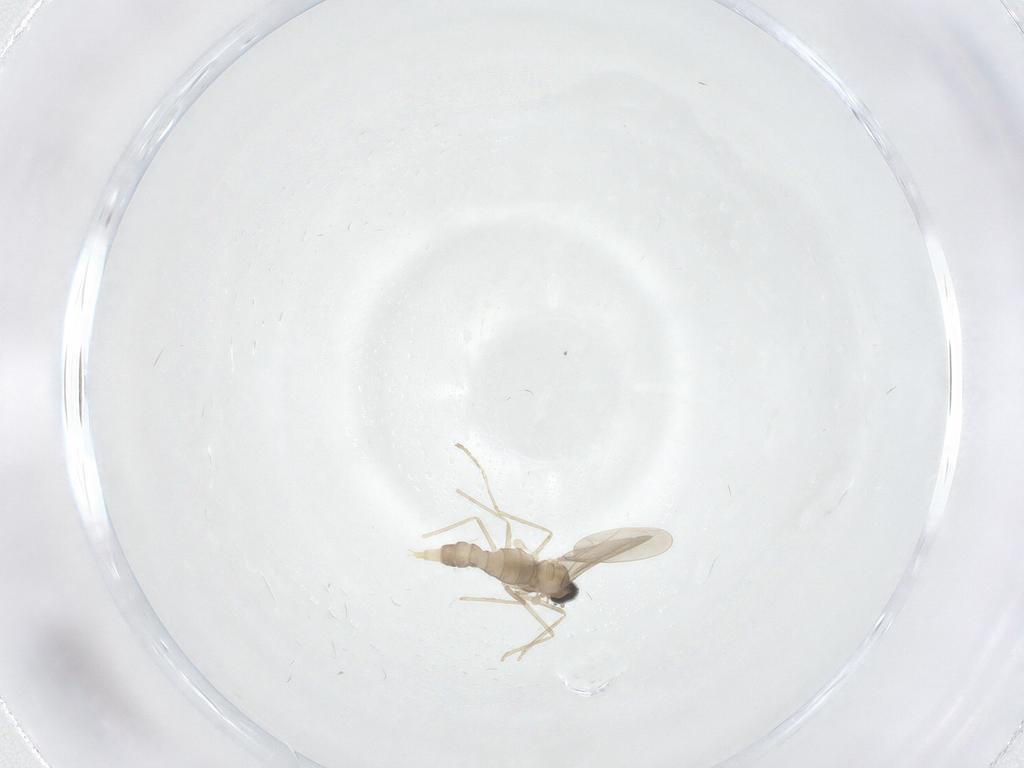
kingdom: Animalia
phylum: Arthropoda
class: Insecta
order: Diptera
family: Cecidomyiidae
